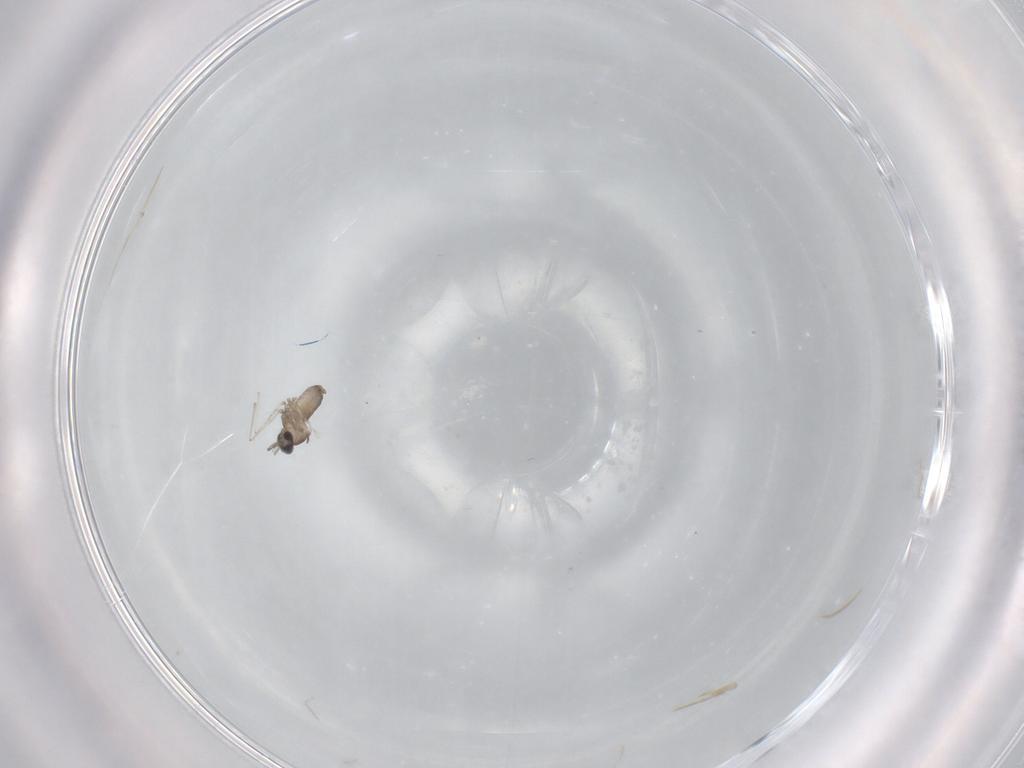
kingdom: Animalia
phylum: Arthropoda
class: Insecta
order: Diptera
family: Cecidomyiidae
